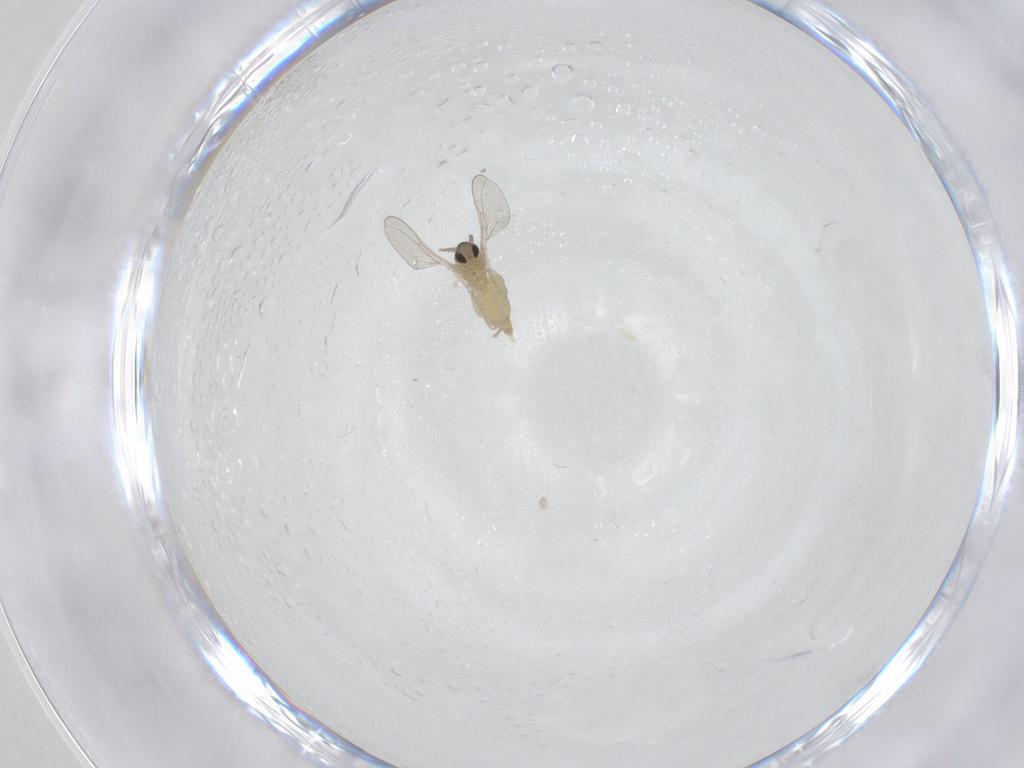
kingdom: Animalia
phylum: Arthropoda
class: Insecta
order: Diptera
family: Cecidomyiidae
